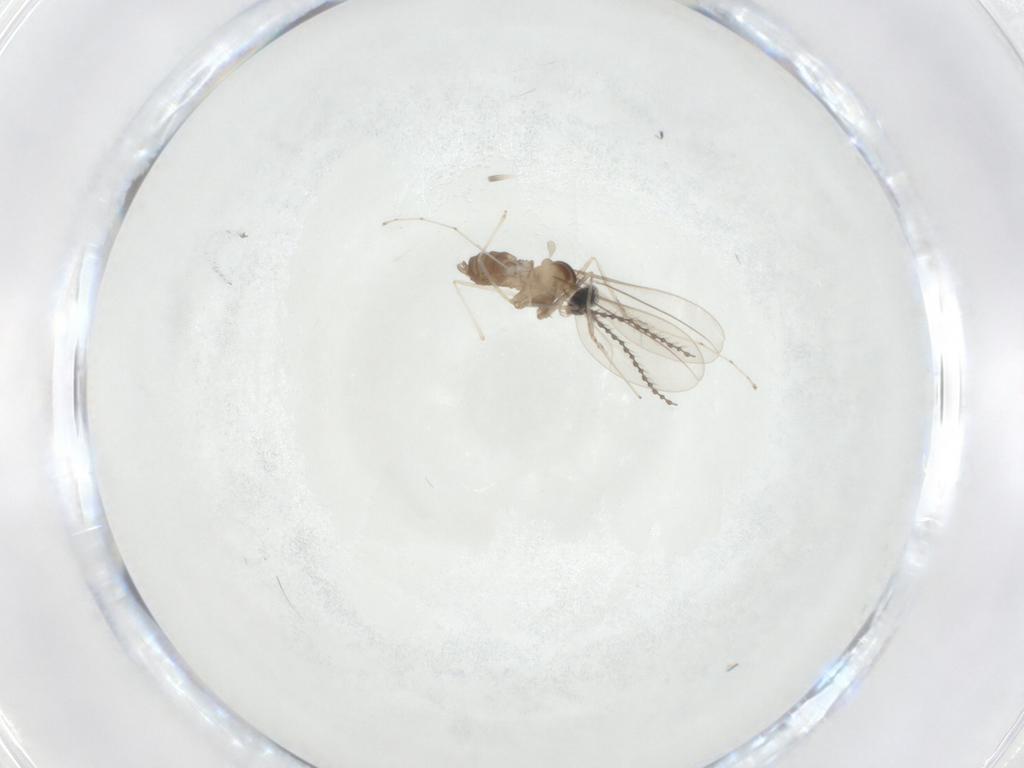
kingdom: Animalia
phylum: Arthropoda
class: Insecta
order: Diptera
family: Cecidomyiidae
